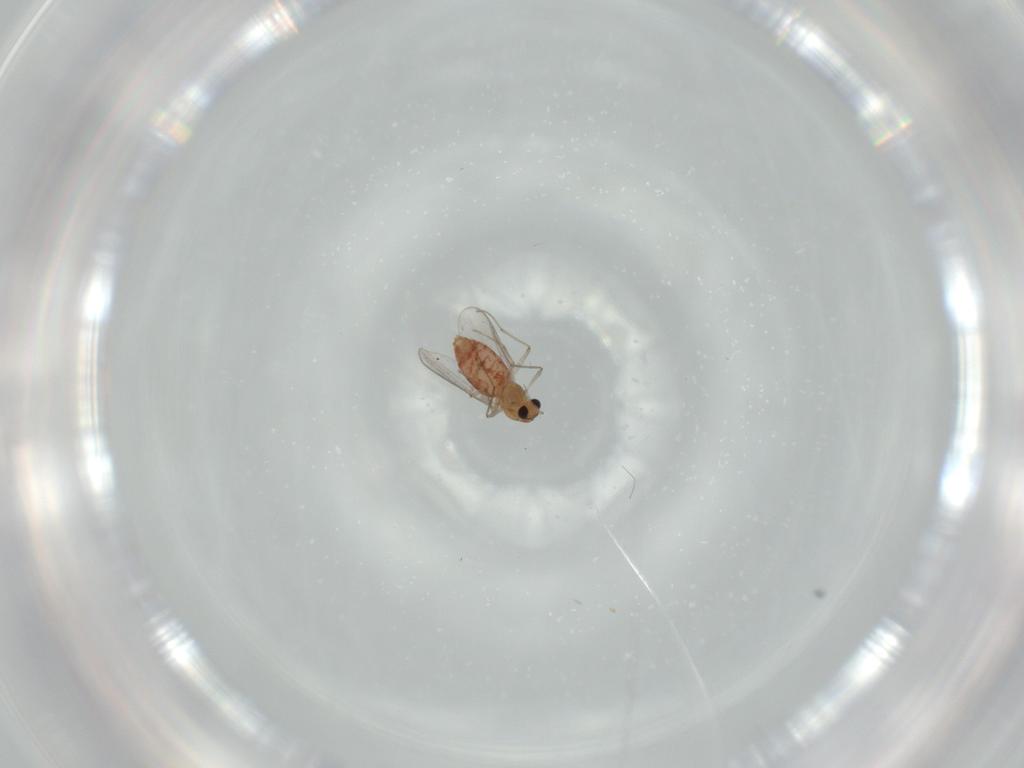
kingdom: Animalia
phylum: Arthropoda
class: Insecta
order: Diptera
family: Chironomidae
